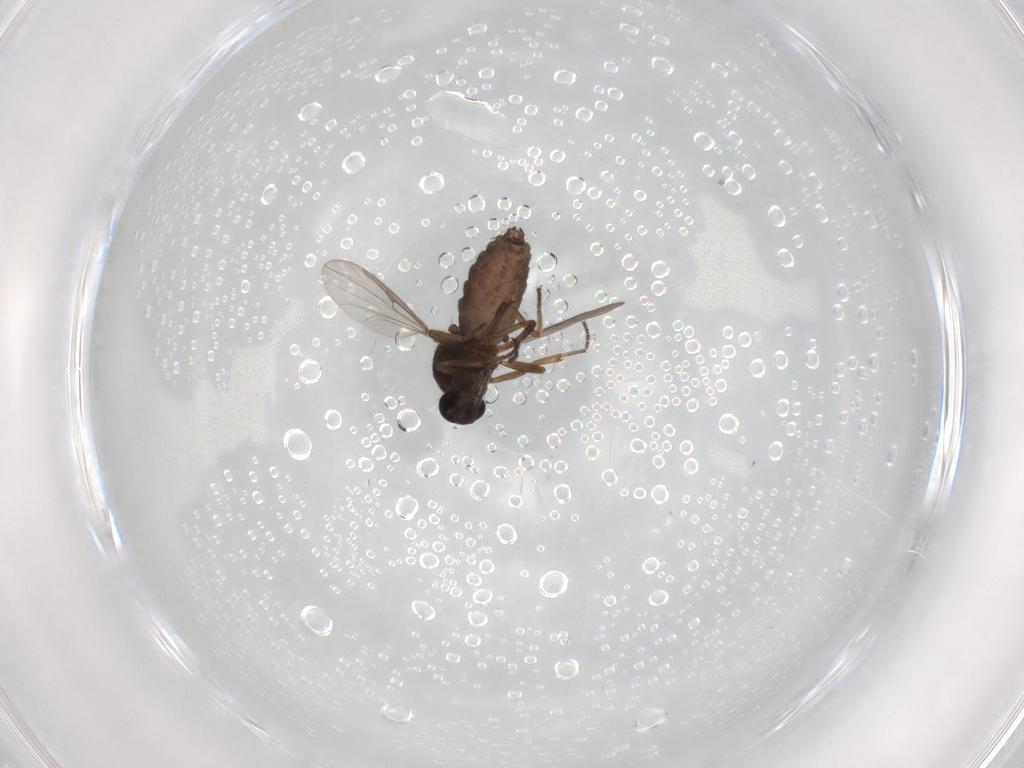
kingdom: Animalia
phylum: Arthropoda
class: Insecta
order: Diptera
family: Ceratopogonidae
